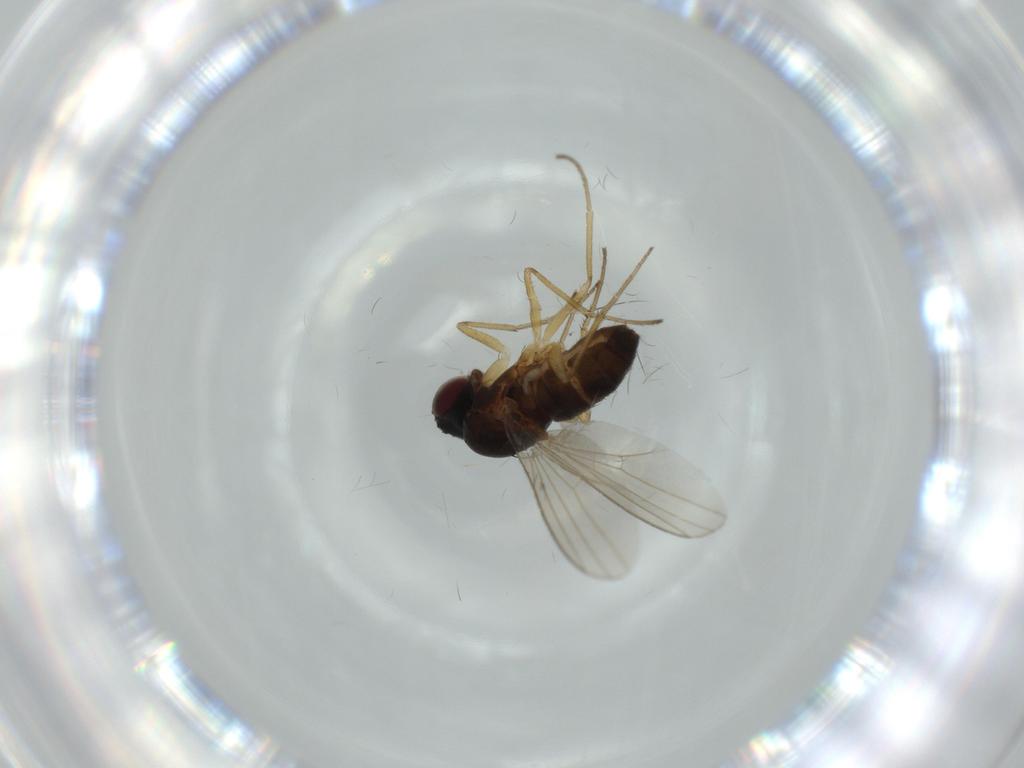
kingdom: Animalia
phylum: Arthropoda
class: Insecta
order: Diptera
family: Dolichopodidae
